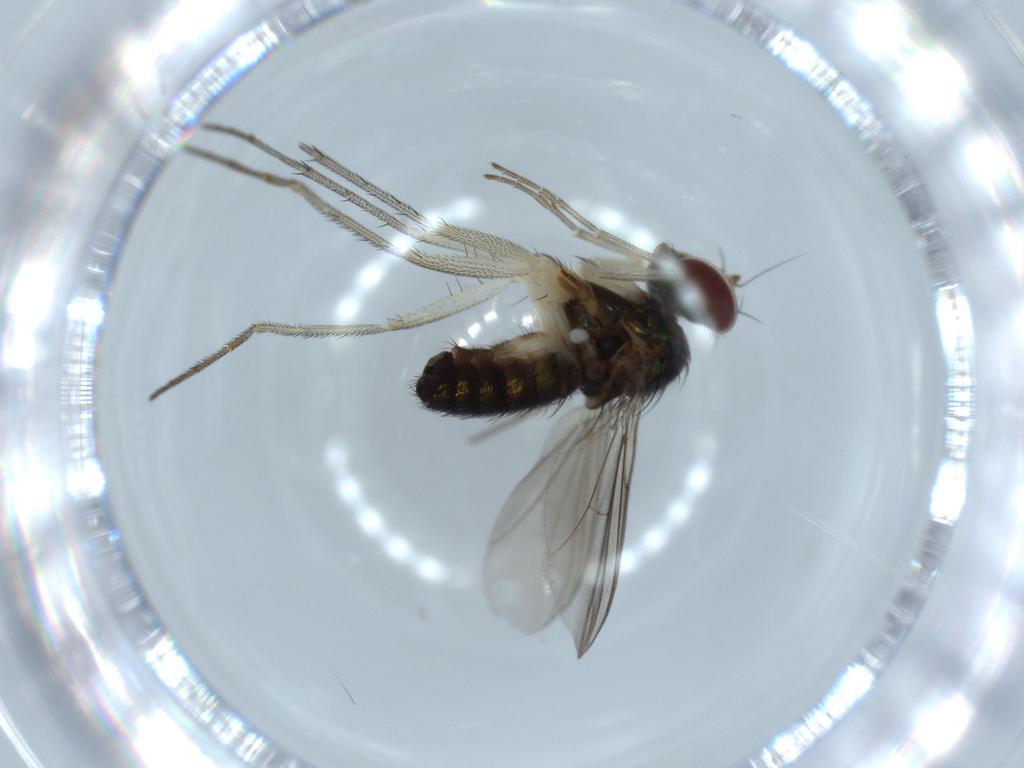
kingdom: Animalia
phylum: Arthropoda
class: Insecta
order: Diptera
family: Dolichopodidae
